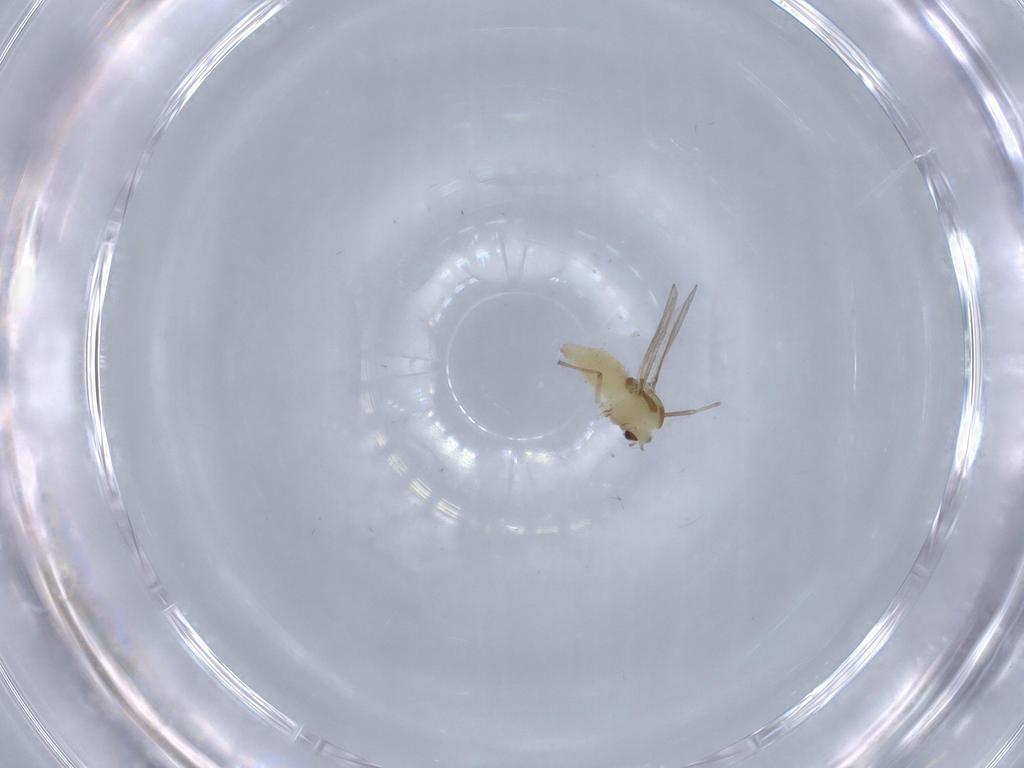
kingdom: Animalia
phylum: Arthropoda
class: Insecta
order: Diptera
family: Chironomidae
